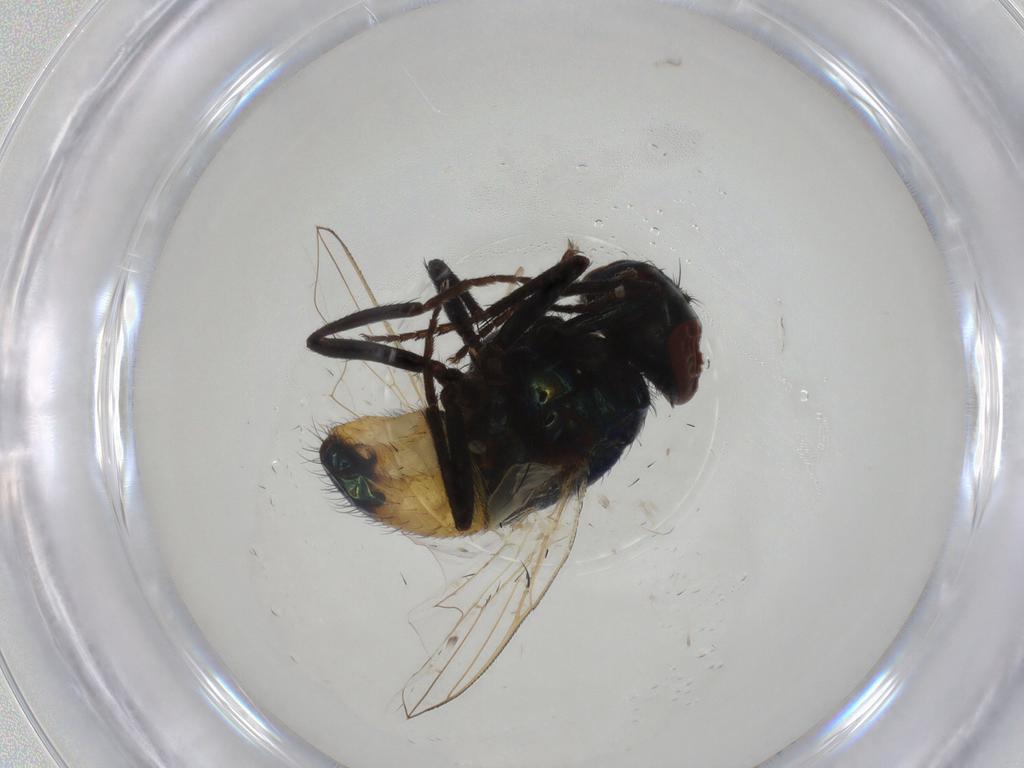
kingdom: Animalia
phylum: Arthropoda
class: Insecta
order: Diptera
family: Muscidae
